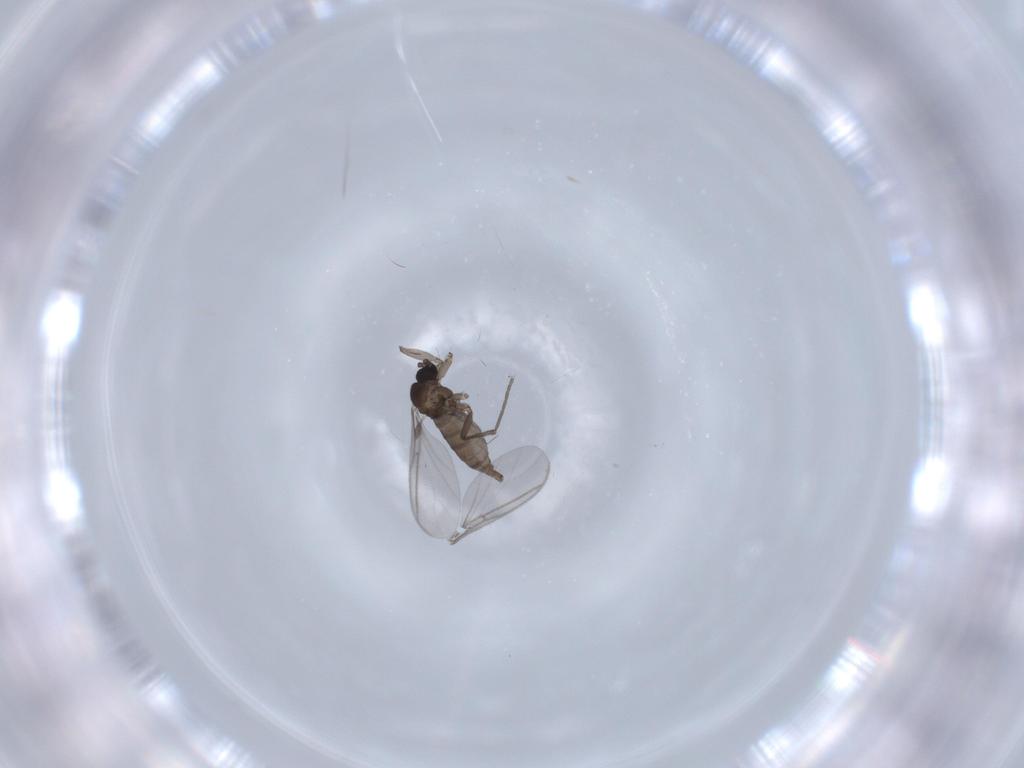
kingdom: Animalia
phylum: Arthropoda
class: Insecta
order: Diptera
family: Sciaridae
